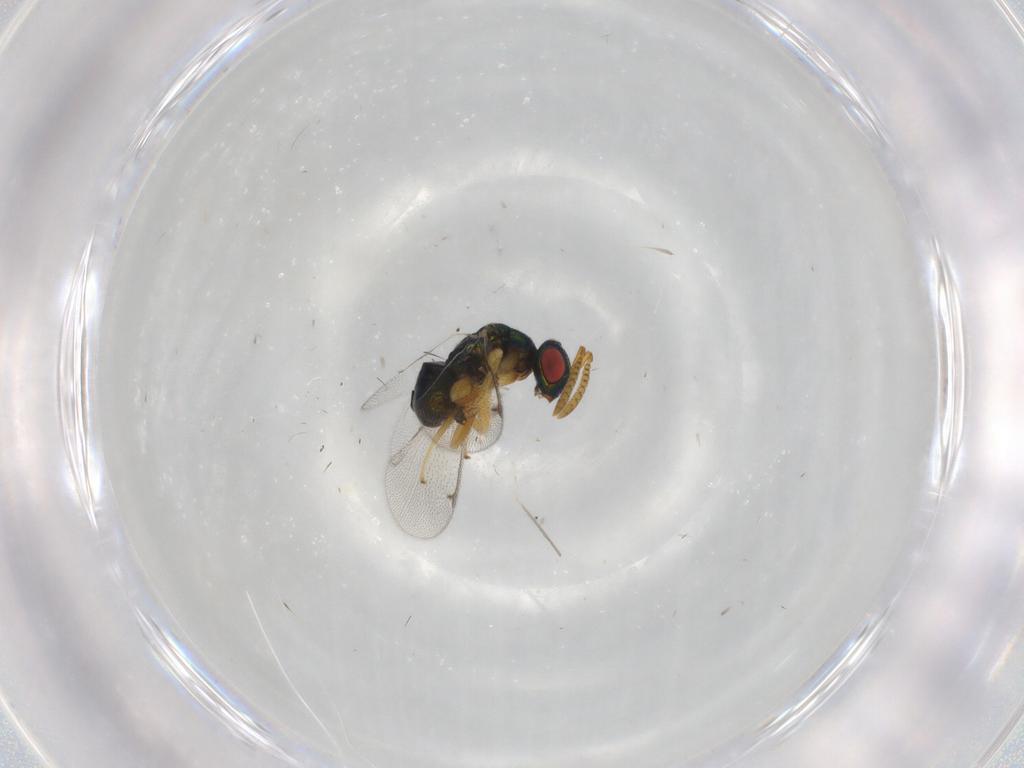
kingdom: Animalia
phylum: Arthropoda
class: Insecta
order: Hymenoptera
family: Torymidae
